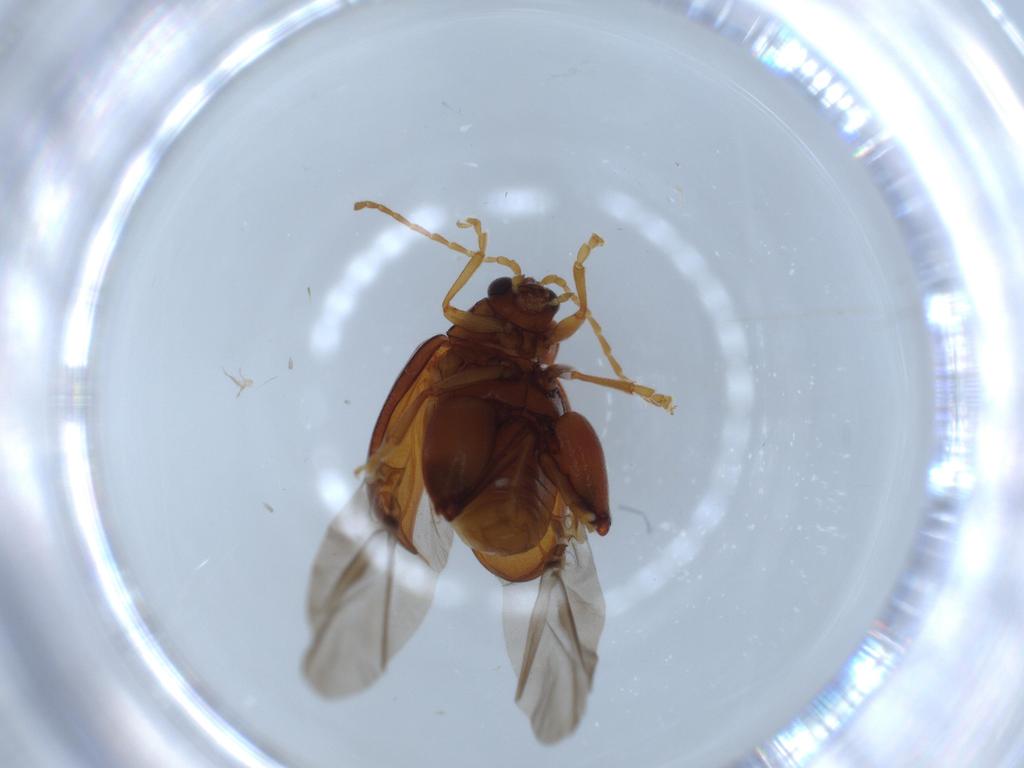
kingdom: Animalia
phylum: Arthropoda
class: Insecta
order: Coleoptera
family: Chrysomelidae
